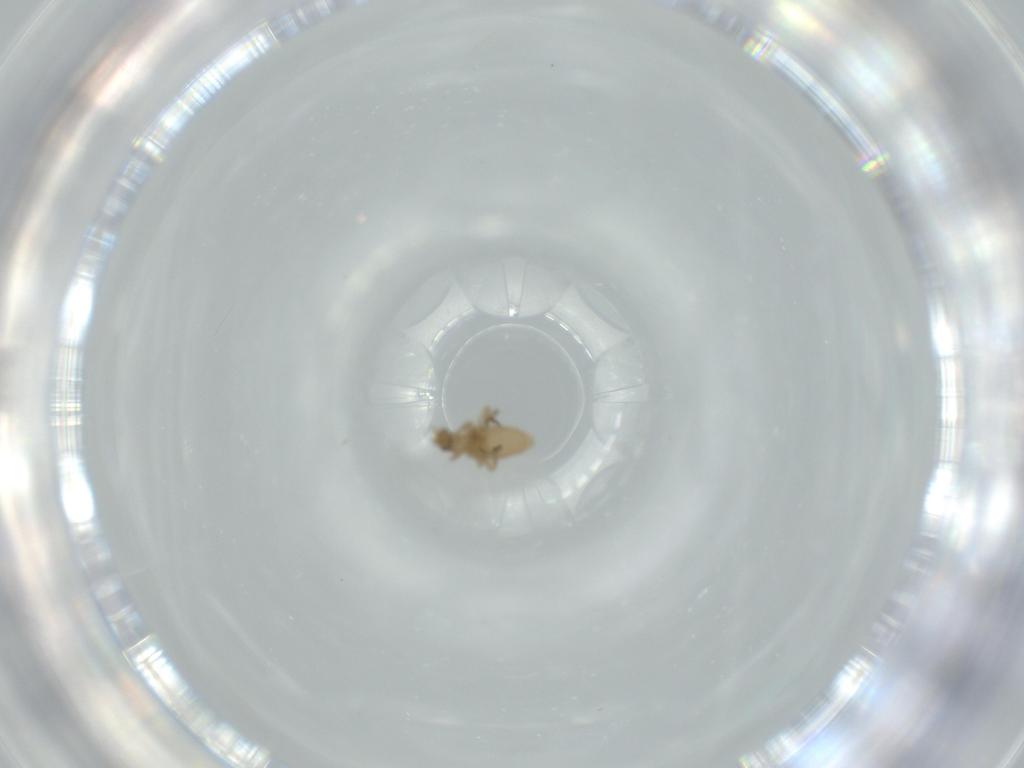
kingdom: Animalia
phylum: Arthropoda
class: Insecta
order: Diptera
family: Phoridae
